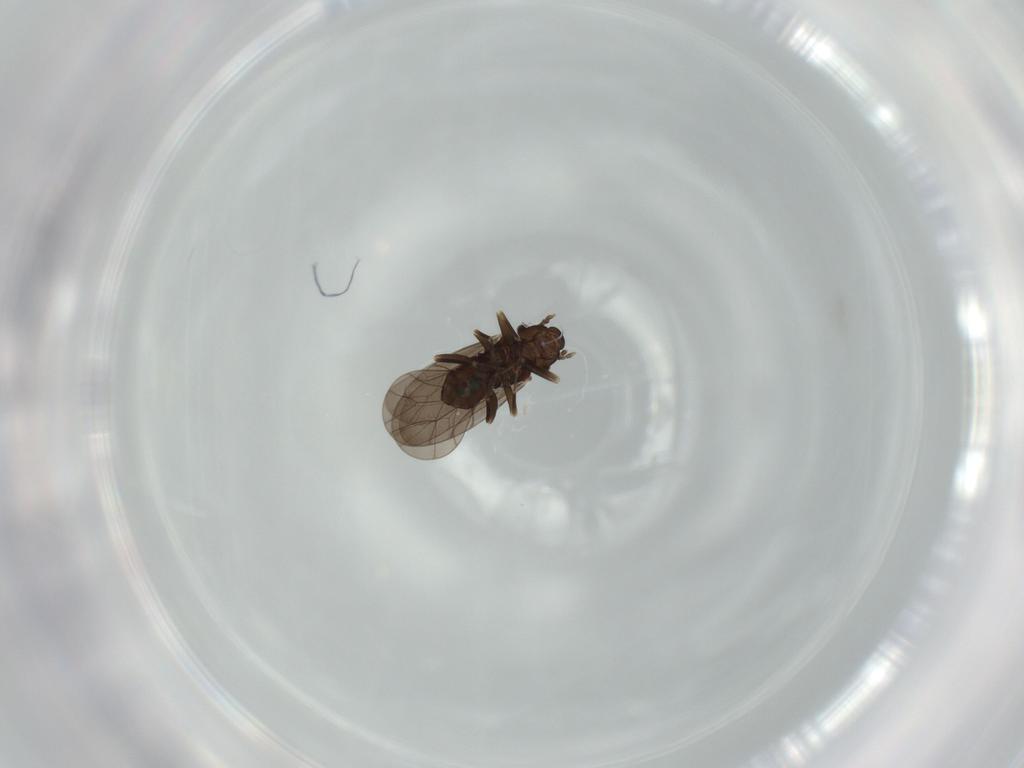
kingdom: Animalia
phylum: Arthropoda
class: Insecta
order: Psocodea
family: Lepidopsocidae
